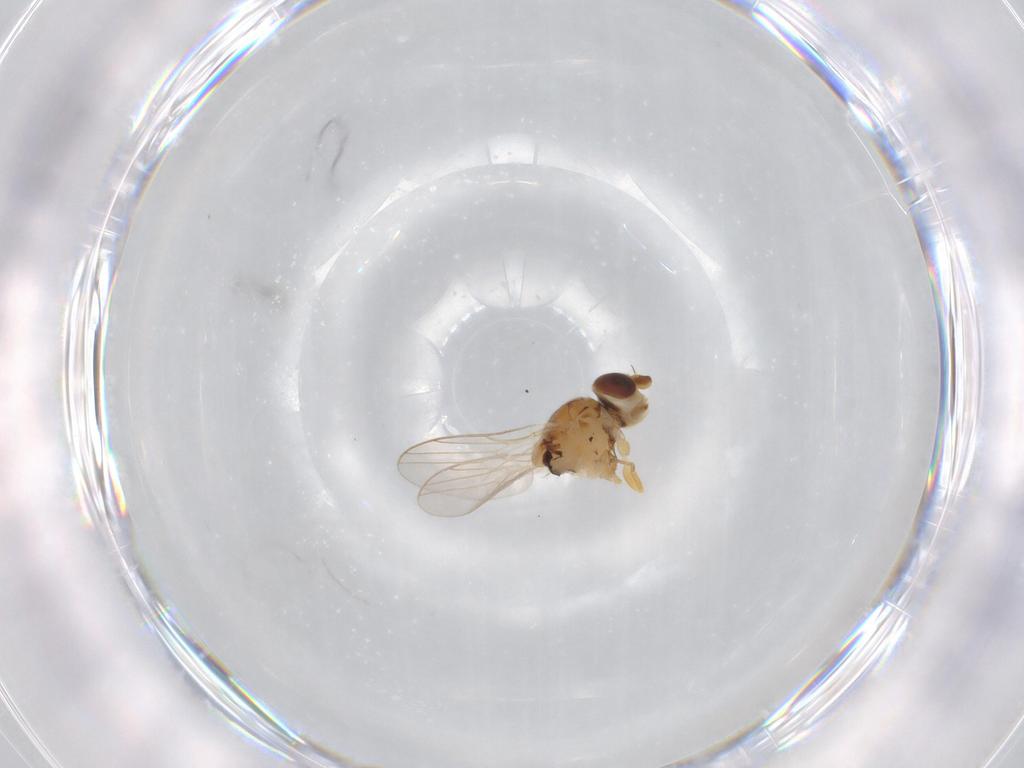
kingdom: Animalia
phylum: Arthropoda
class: Insecta
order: Diptera
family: Chloropidae
